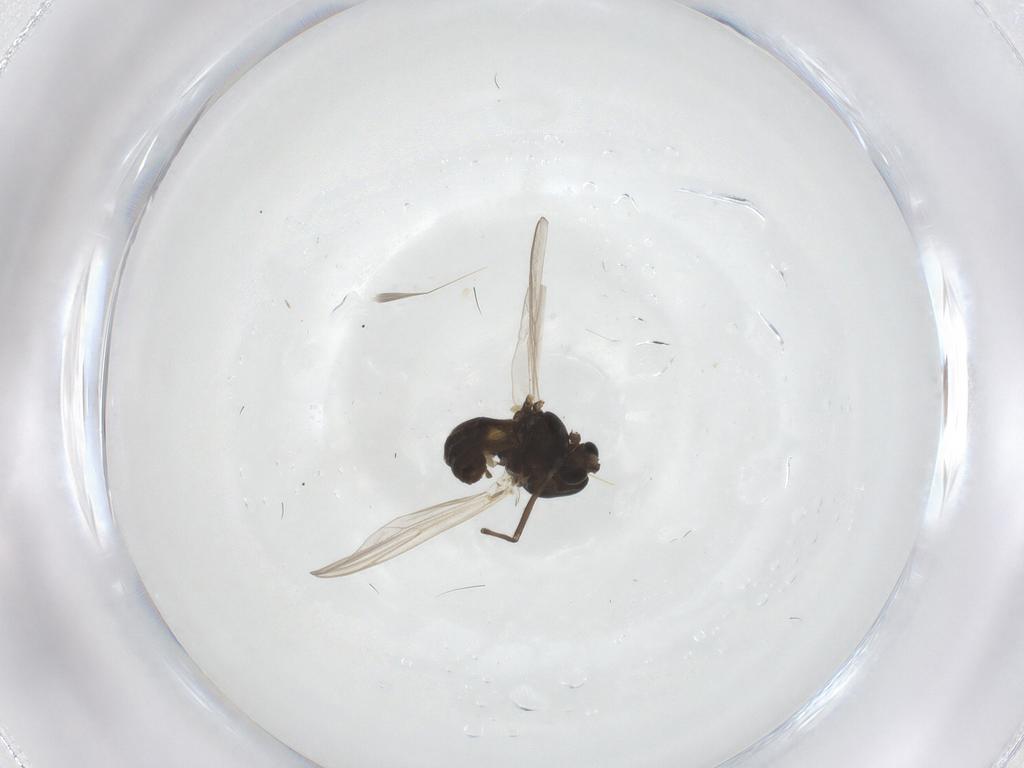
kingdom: Animalia
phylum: Arthropoda
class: Insecta
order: Diptera
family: Chironomidae
